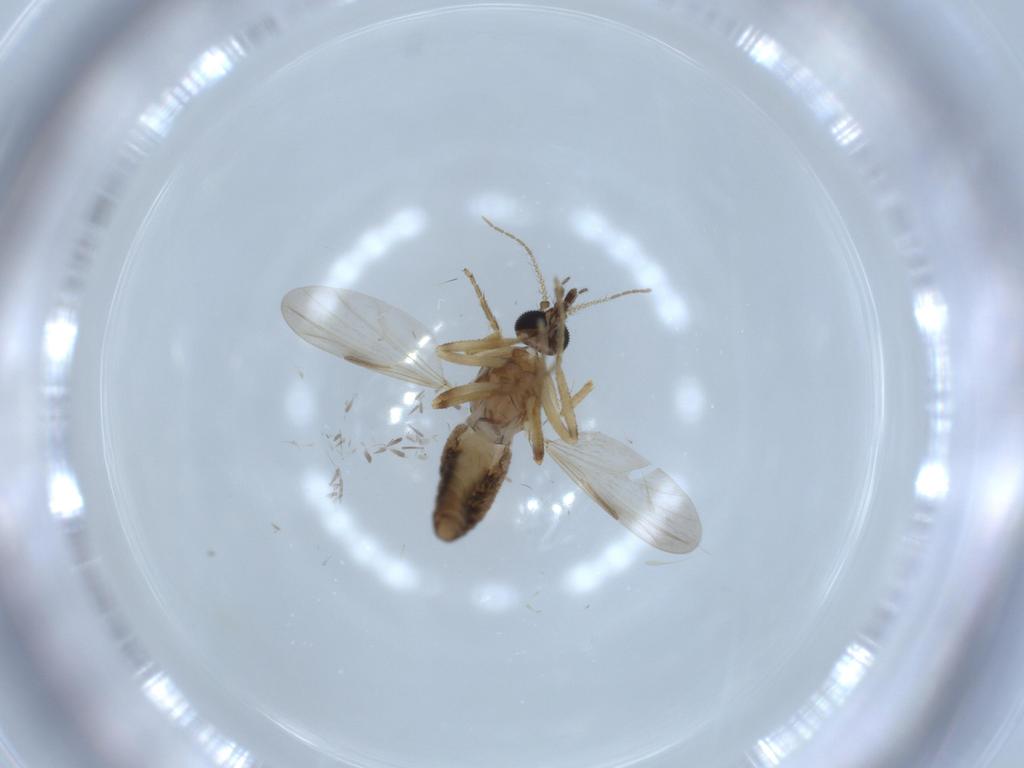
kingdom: Animalia
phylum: Arthropoda
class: Insecta
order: Diptera
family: Ceratopogonidae
